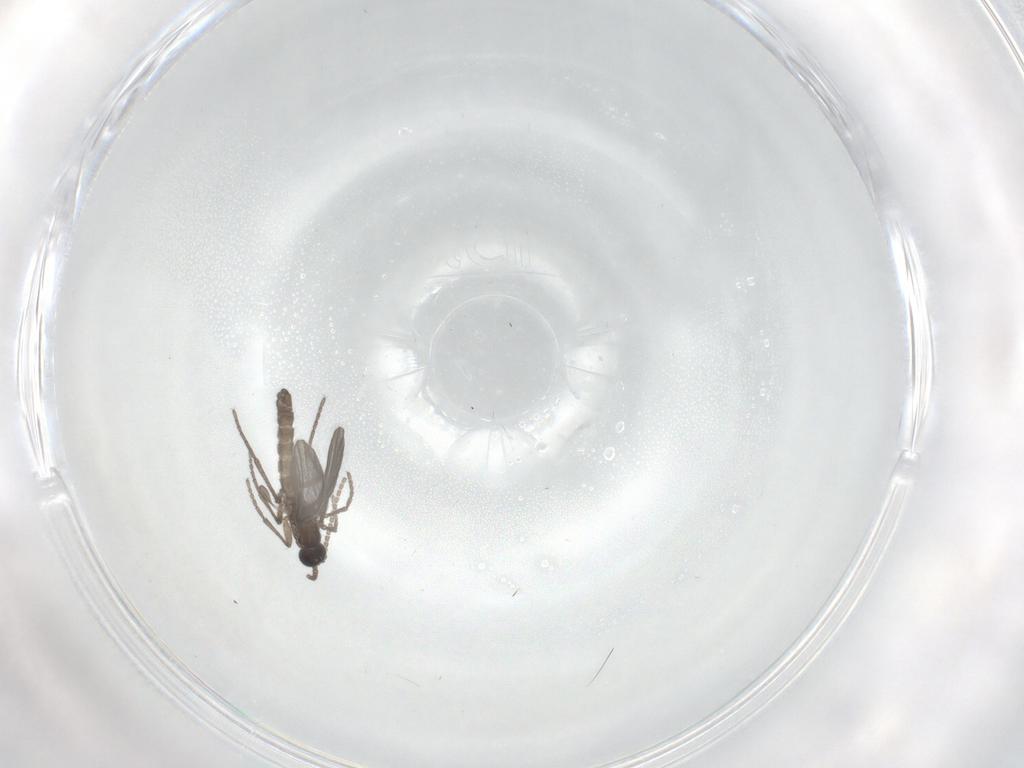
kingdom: Animalia
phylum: Arthropoda
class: Insecta
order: Diptera
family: Sciaridae
